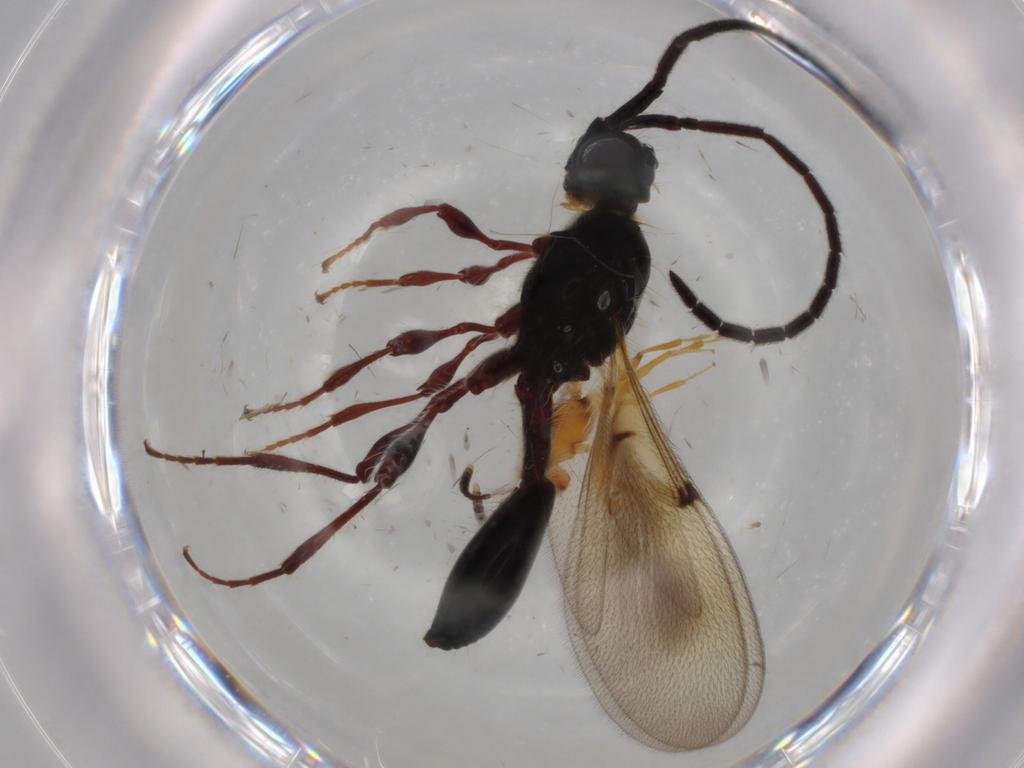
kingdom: Animalia
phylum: Arthropoda
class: Insecta
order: Hymenoptera
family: Diapriidae
